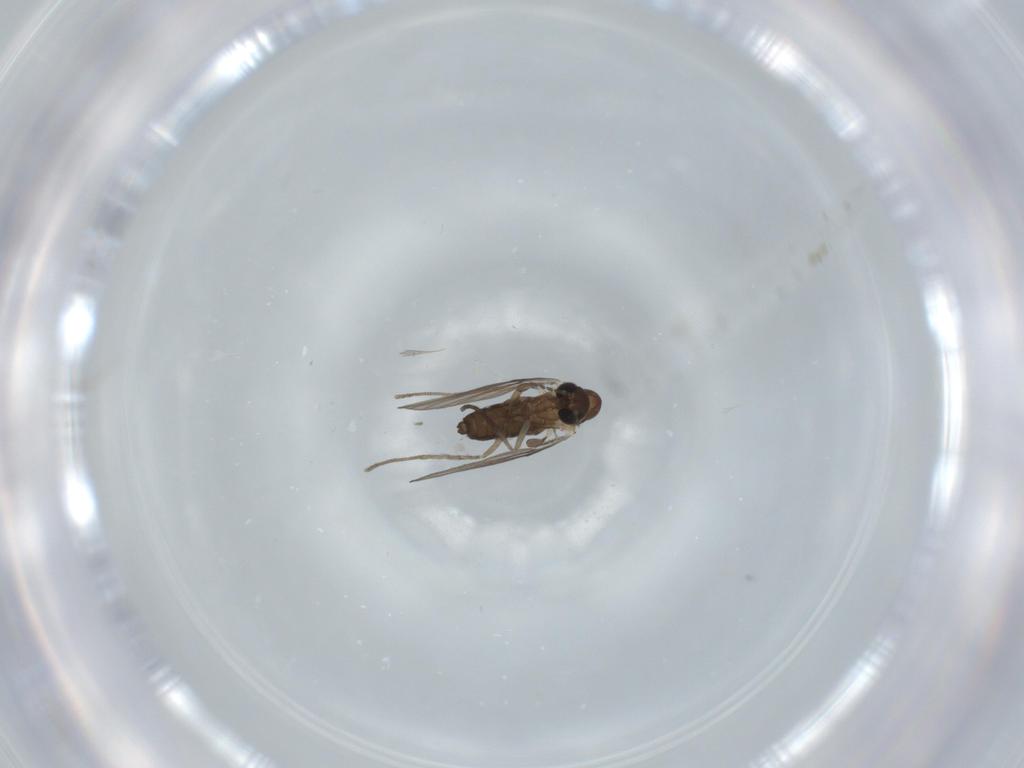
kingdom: Animalia
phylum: Arthropoda
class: Insecta
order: Diptera
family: Psychodidae
